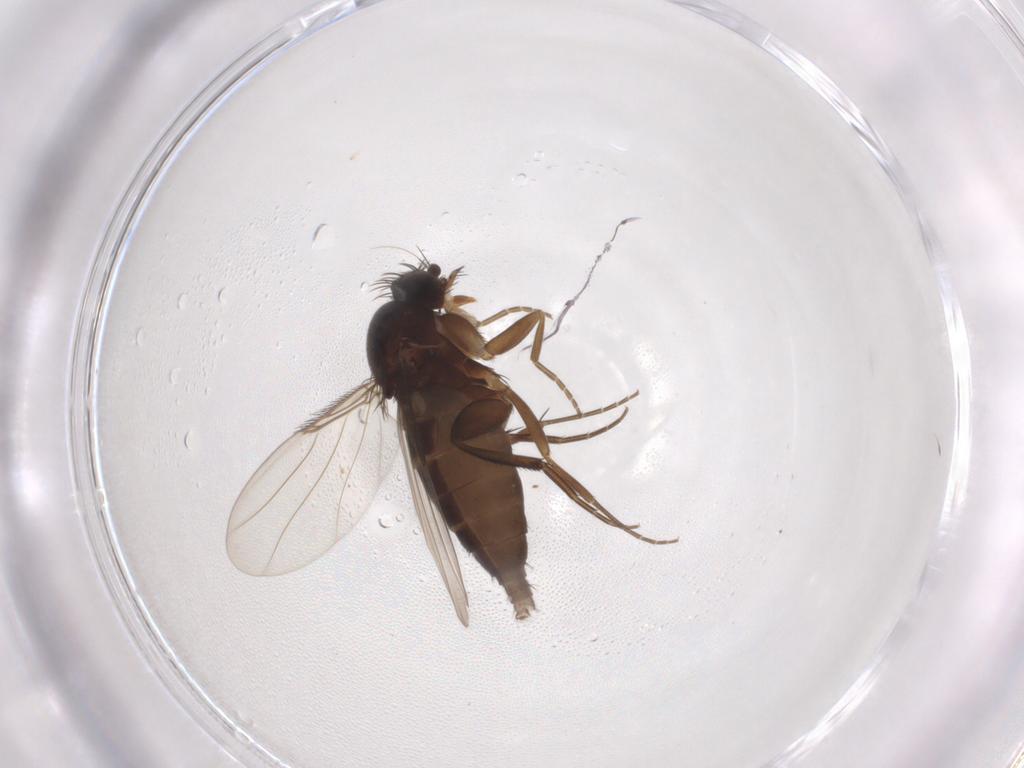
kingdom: Animalia
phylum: Arthropoda
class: Insecta
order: Diptera
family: Phoridae
